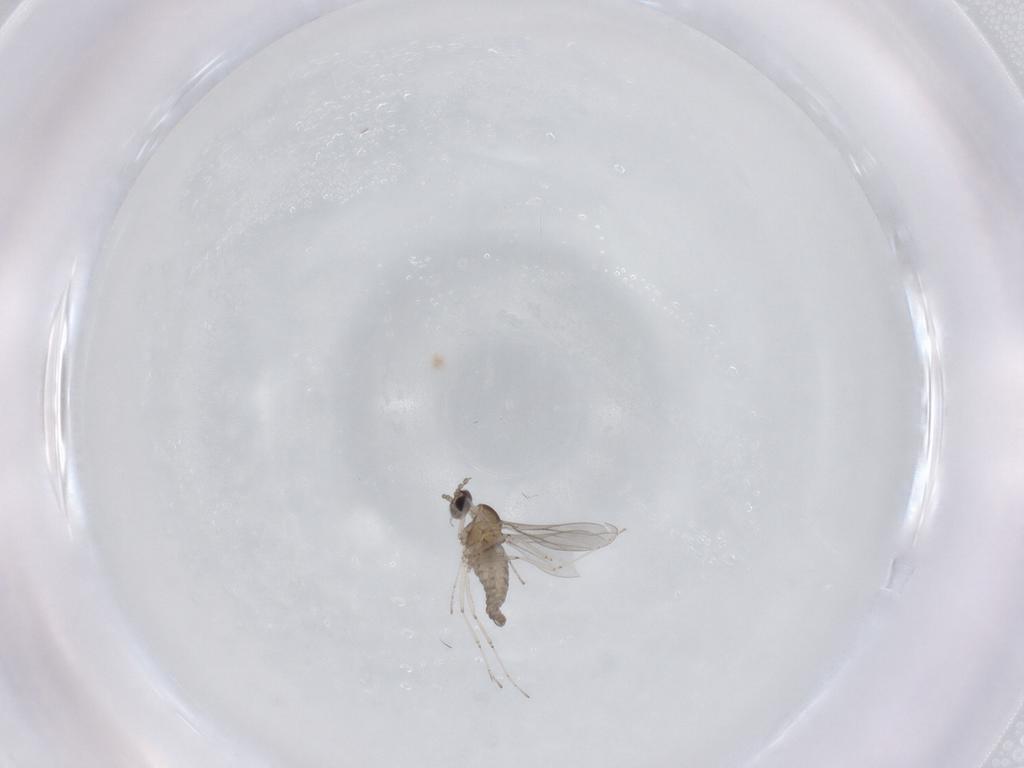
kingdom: Animalia
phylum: Arthropoda
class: Insecta
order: Diptera
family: Cecidomyiidae
